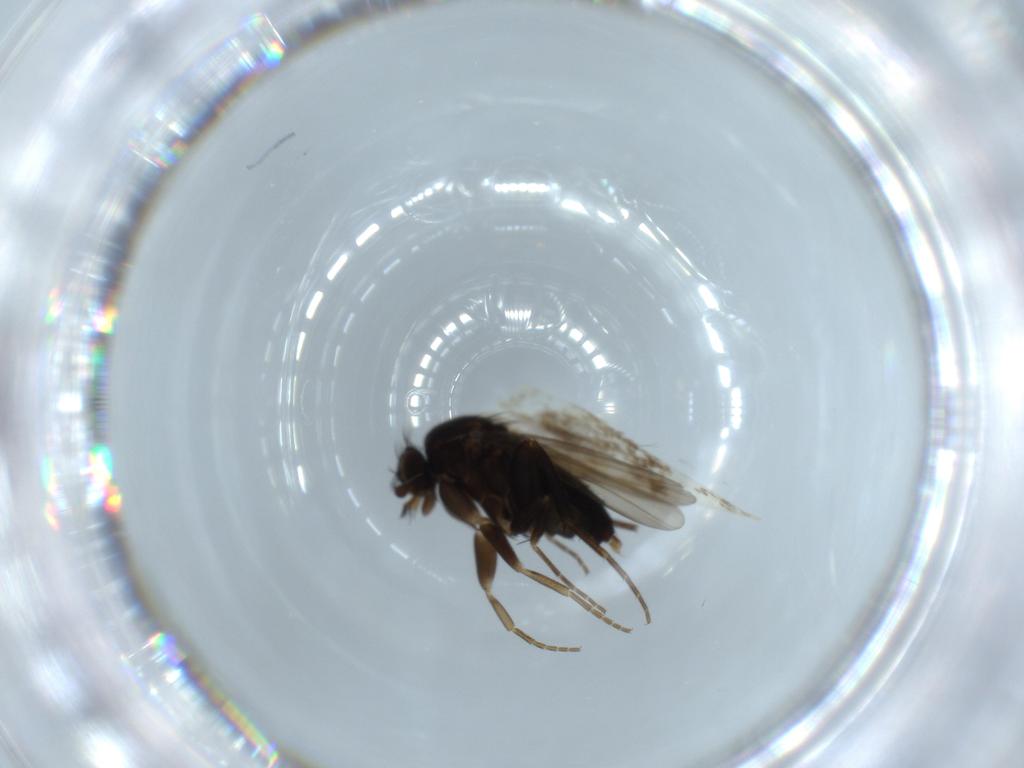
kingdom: Animalia
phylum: Arthropoda
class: Insecta
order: Diptera
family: Phoridae
